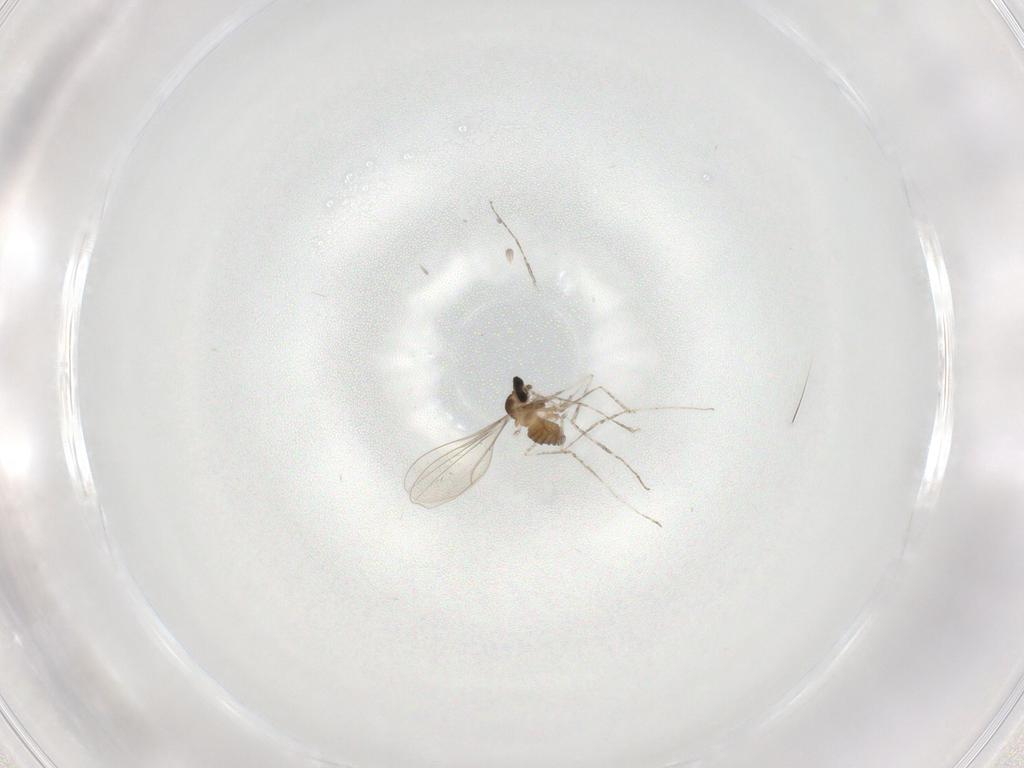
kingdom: Animalia
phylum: Arthropoda
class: Insecta
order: Diptera
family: Cecidomyiidae
